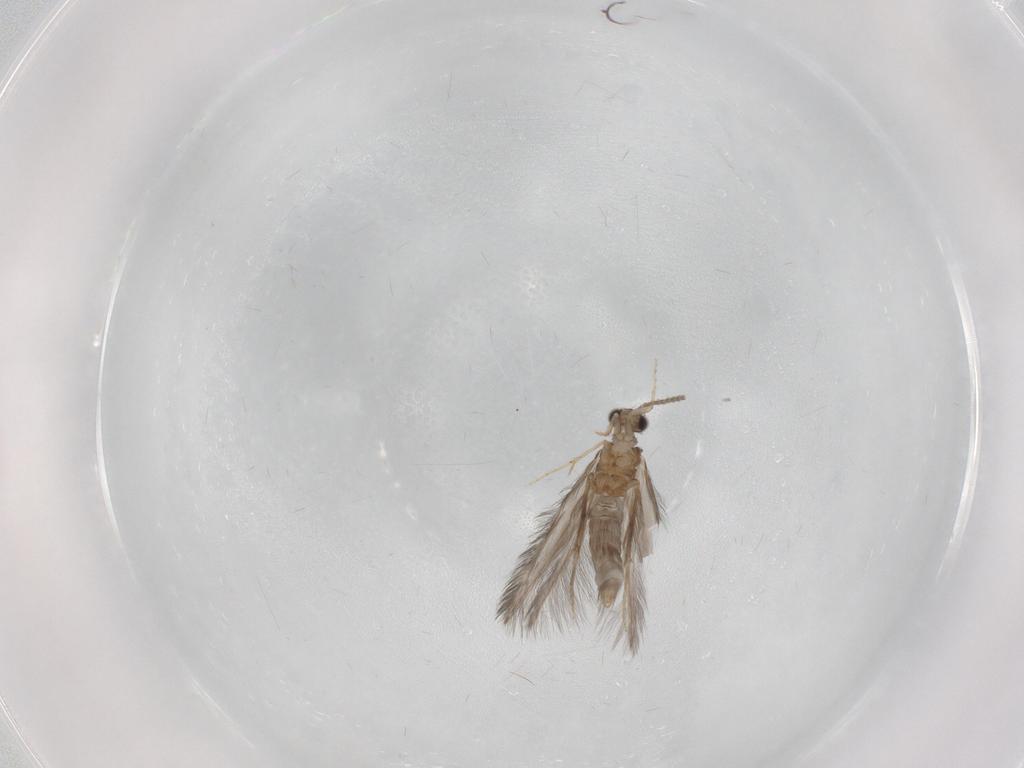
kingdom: Animalia
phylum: Arthropoda
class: Insecta
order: Trichoptera
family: Hydroptilidae
